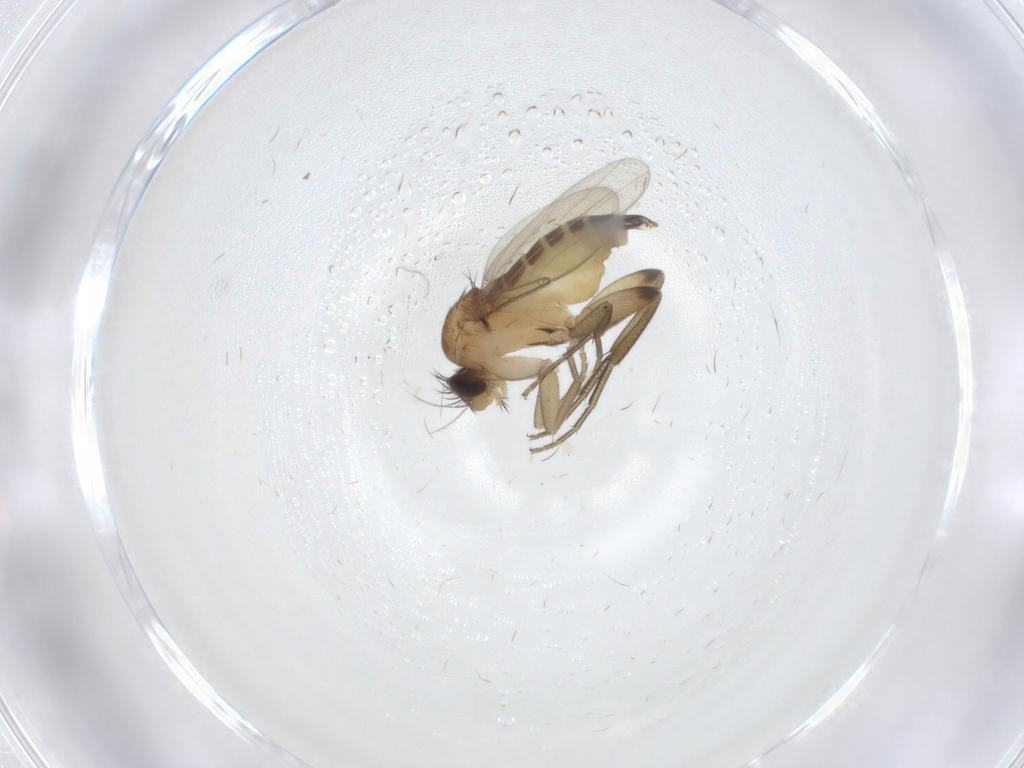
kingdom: Animalia
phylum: Arthropoda
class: Insecta
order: Diptera
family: Phoridae
